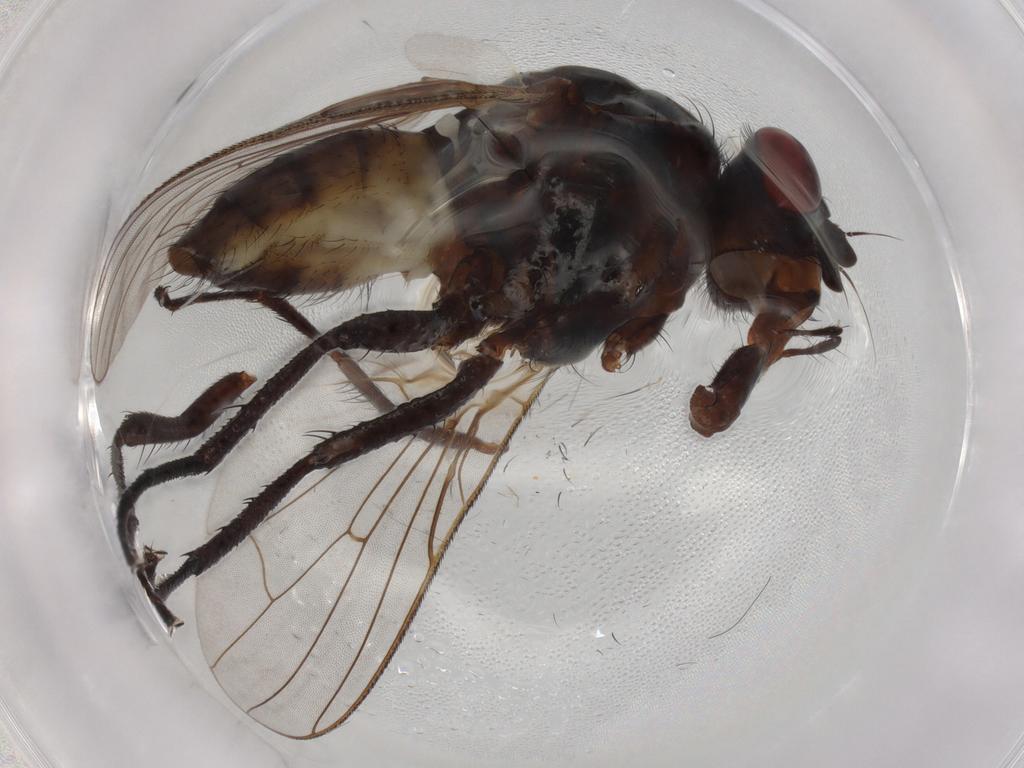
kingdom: Animalia
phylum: Arthropoda
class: Insecta
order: Diptera
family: Anthomyiidae
